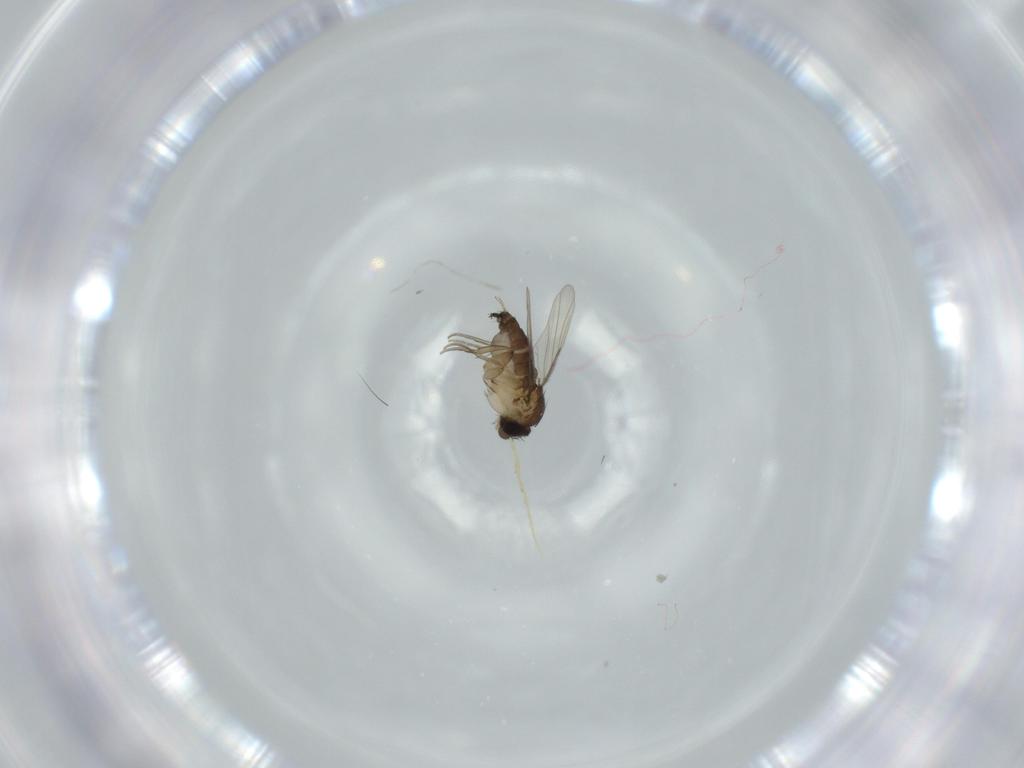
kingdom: Animalia
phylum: Arthropoda
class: Insecta
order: Diptera
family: Phoridae
